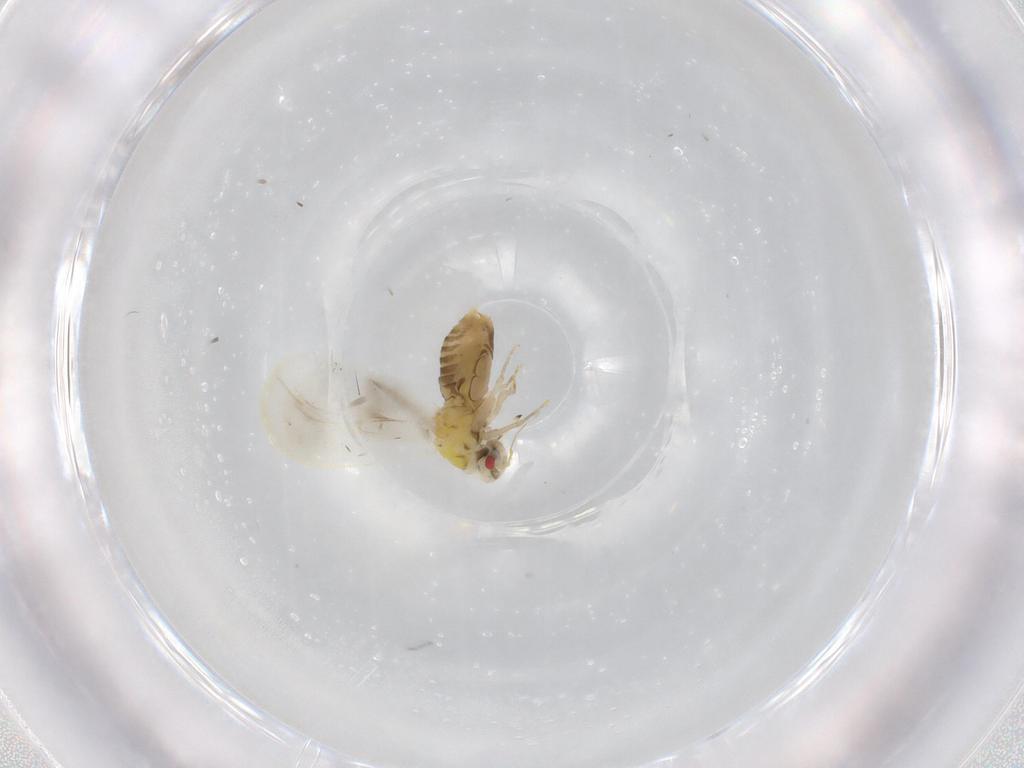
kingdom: Animalia
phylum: Arthropoda
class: Insecta
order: Hemiptera
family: Aleyrodidae
